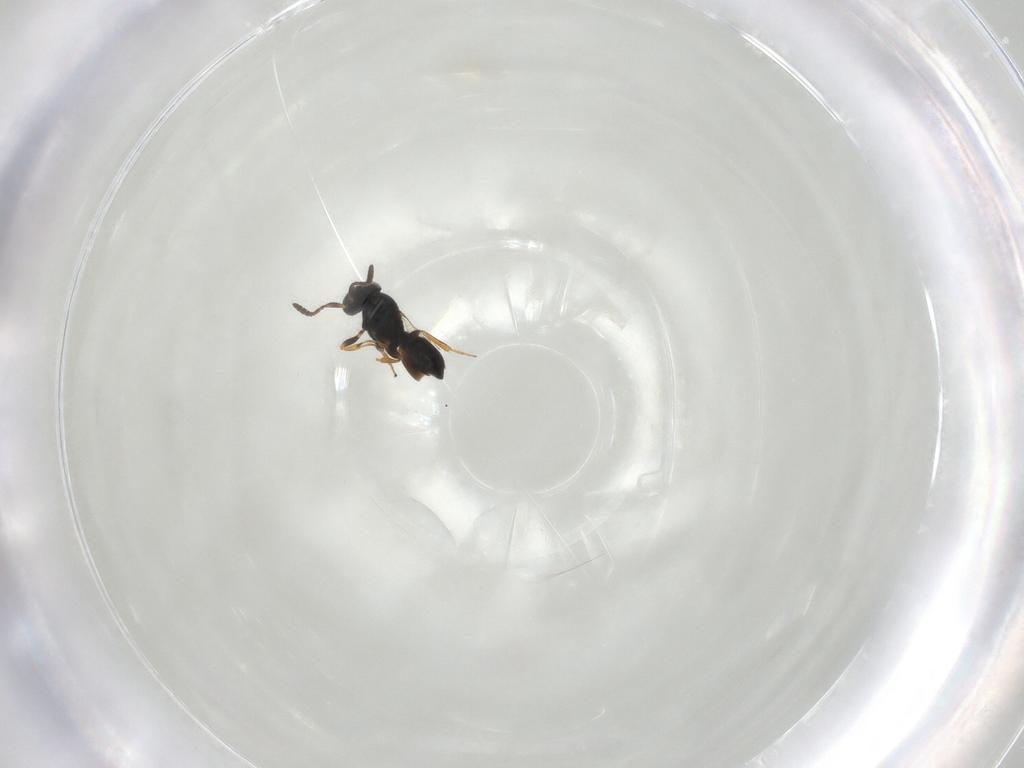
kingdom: Animalia
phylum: Arthropoda
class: Insecta
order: Hymenoptera
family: Scelionidae
